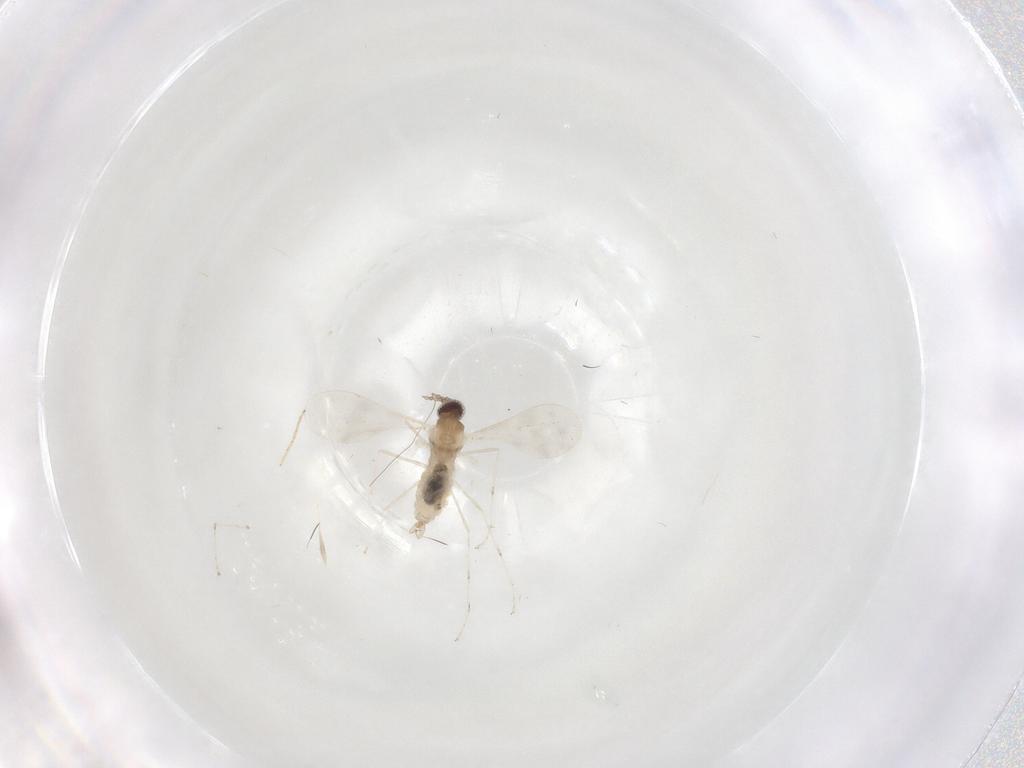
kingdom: Animalia
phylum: Arthropoda
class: Insecta
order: Diptera
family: Cecidomyiidae
